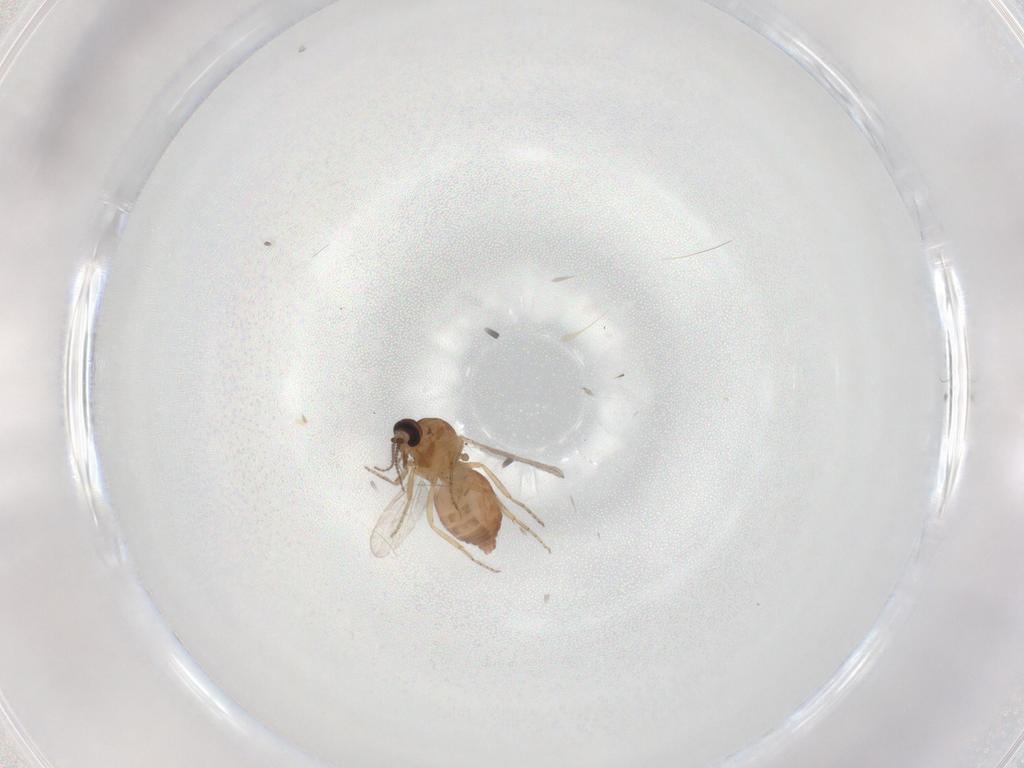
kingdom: Animalia
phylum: Arthropoda
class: Insecta
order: Diptera
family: Ceratopogonidae
